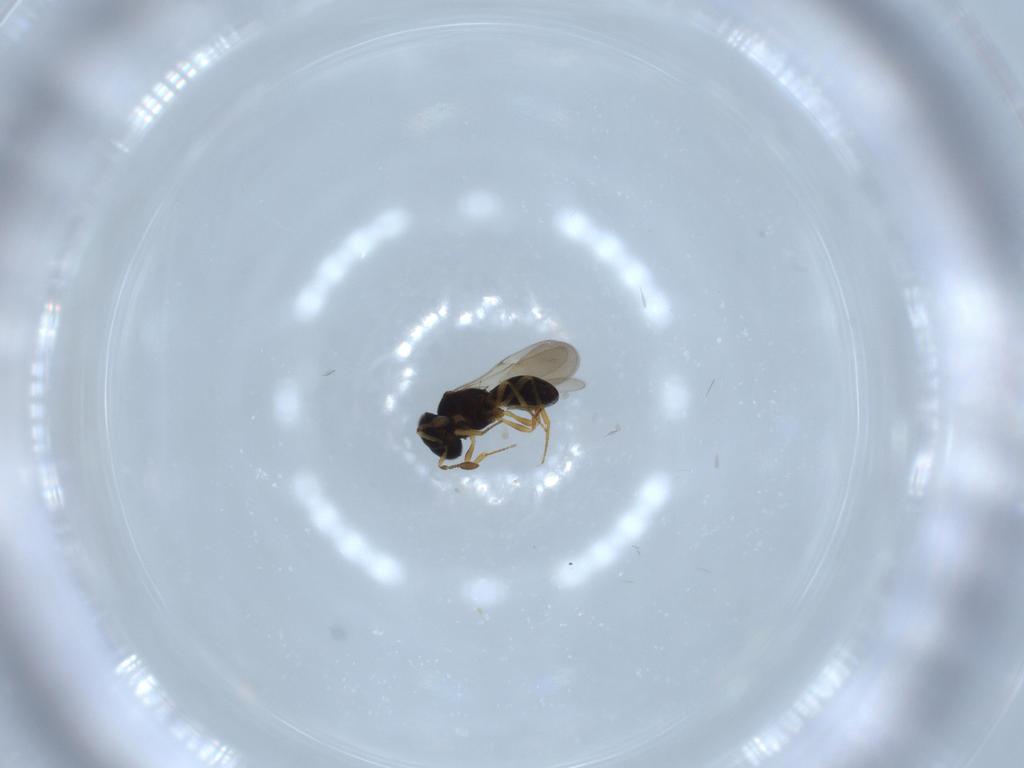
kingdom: Animalia
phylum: Arthropoda
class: Insecta
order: Hymenoptera
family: Scelionidae
